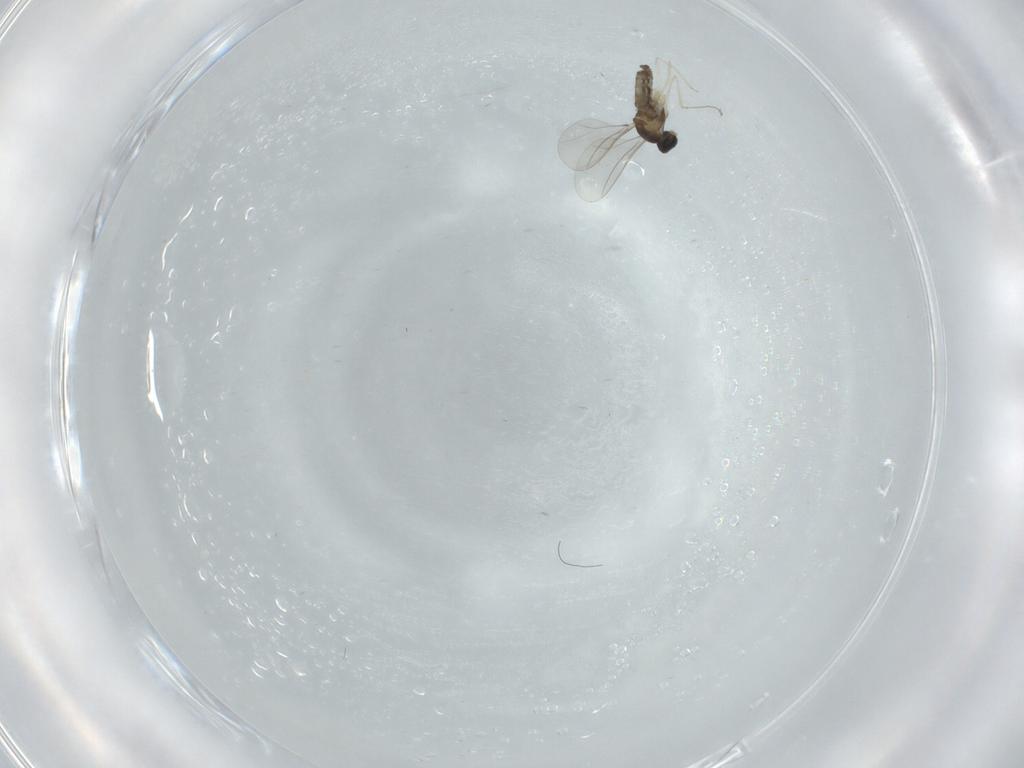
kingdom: Animalia
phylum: Arthropoda
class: Insecta
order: Diptera
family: Cecidomyiidae
